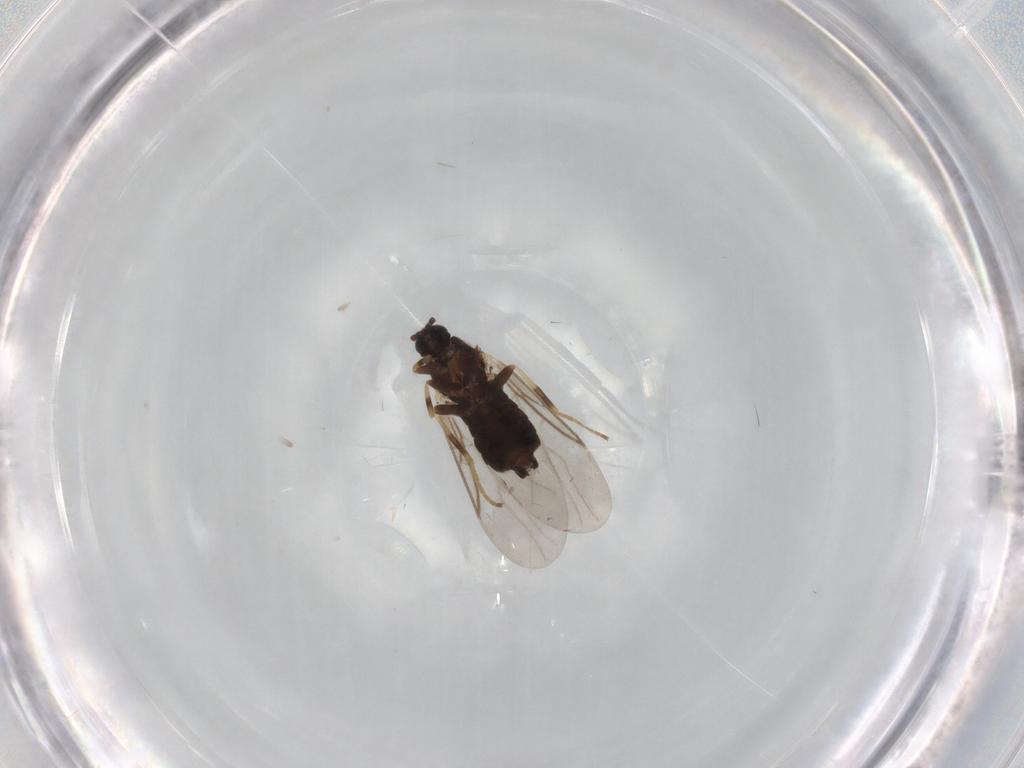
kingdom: Animalia
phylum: Arthropoda
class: Insecta
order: Diptera
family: Scatopsidae
